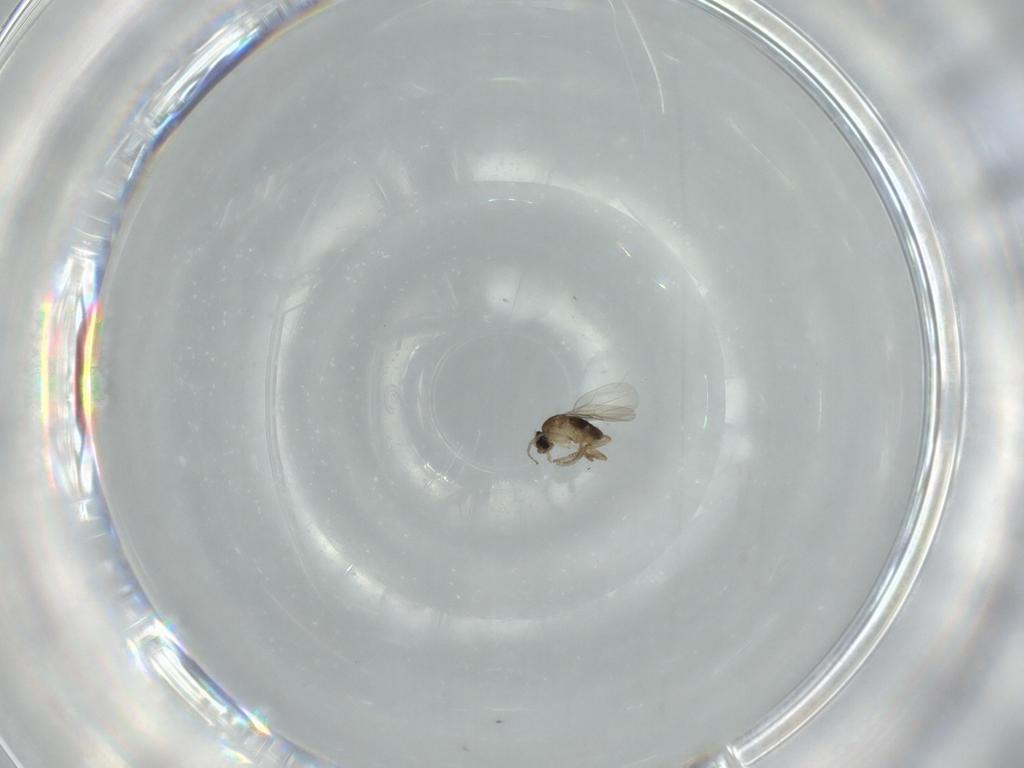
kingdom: Animalia
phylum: Arthropoda
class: Insecta
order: Diptera
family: Phoridae
